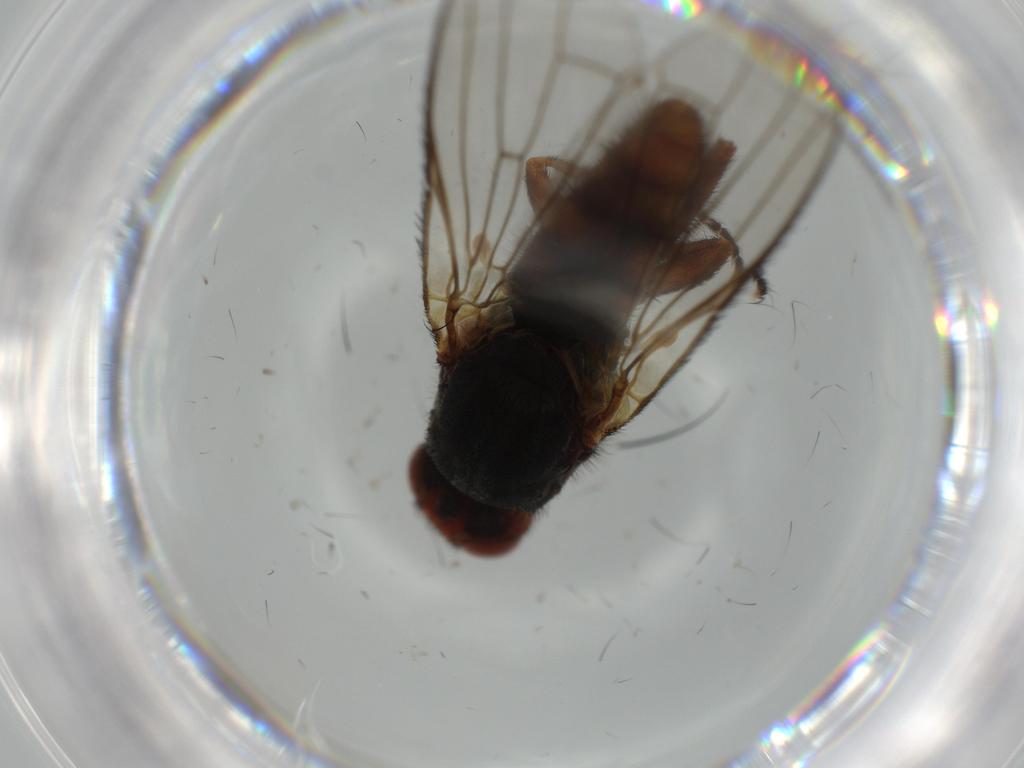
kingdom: Animalia
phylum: Arthropoda
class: Insecta
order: Diptera
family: Heleomyzidae
